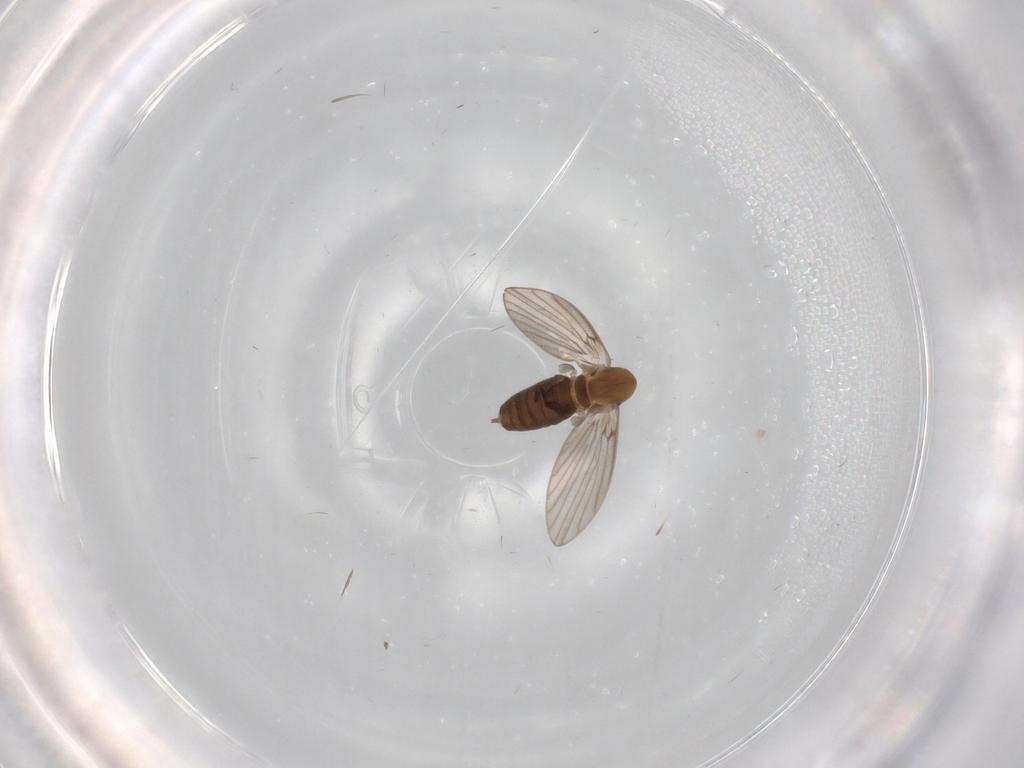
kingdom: Animalia
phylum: Arthropoda
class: Insecta
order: Diptera
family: Psychodidae
